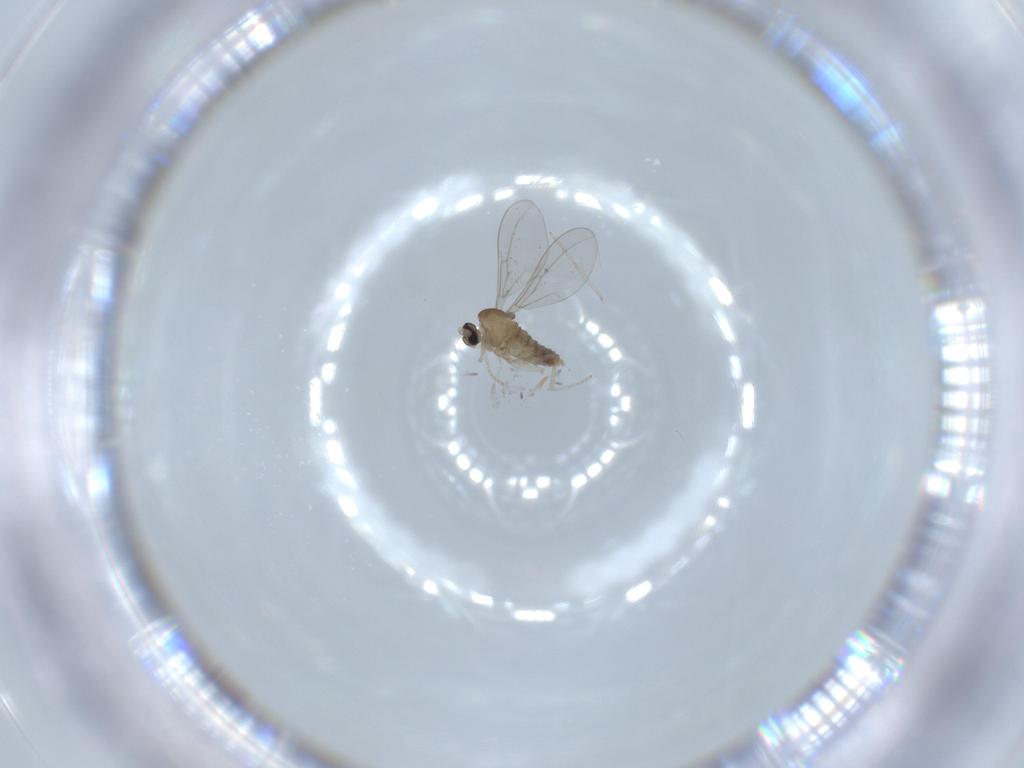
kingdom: Animalia
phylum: Arthropoda
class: Insecta
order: Diptera
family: Cecidomyiidae
